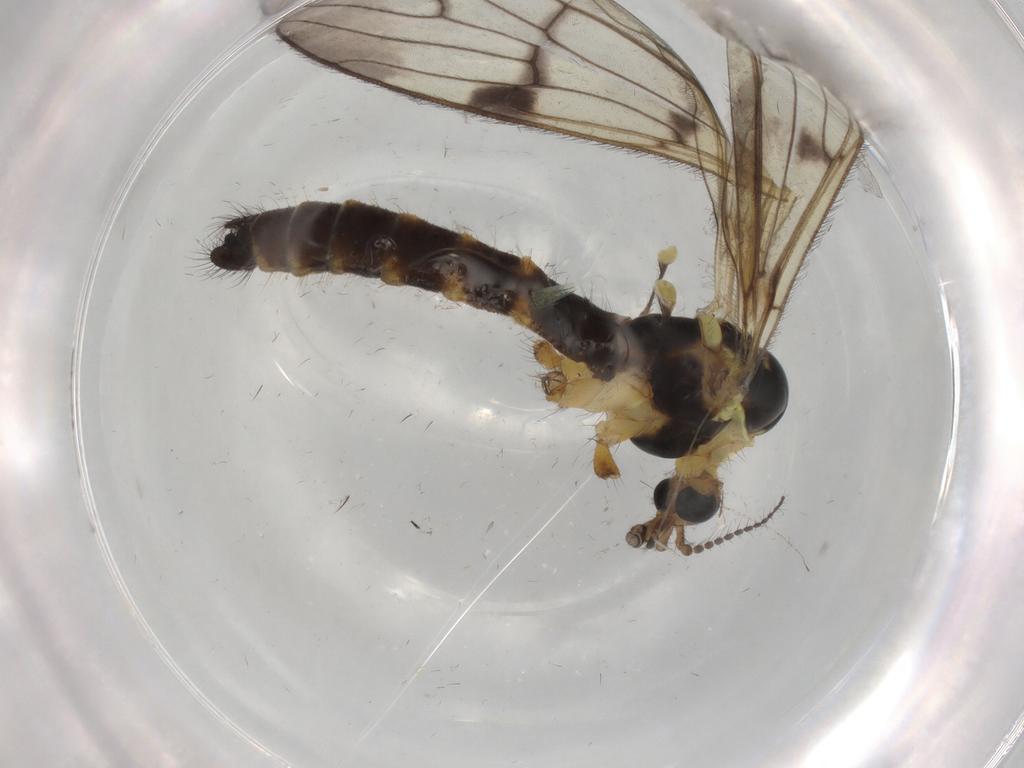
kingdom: Animalia
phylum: Arthropoda
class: Insecta
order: Diptera
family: Limoniidae
